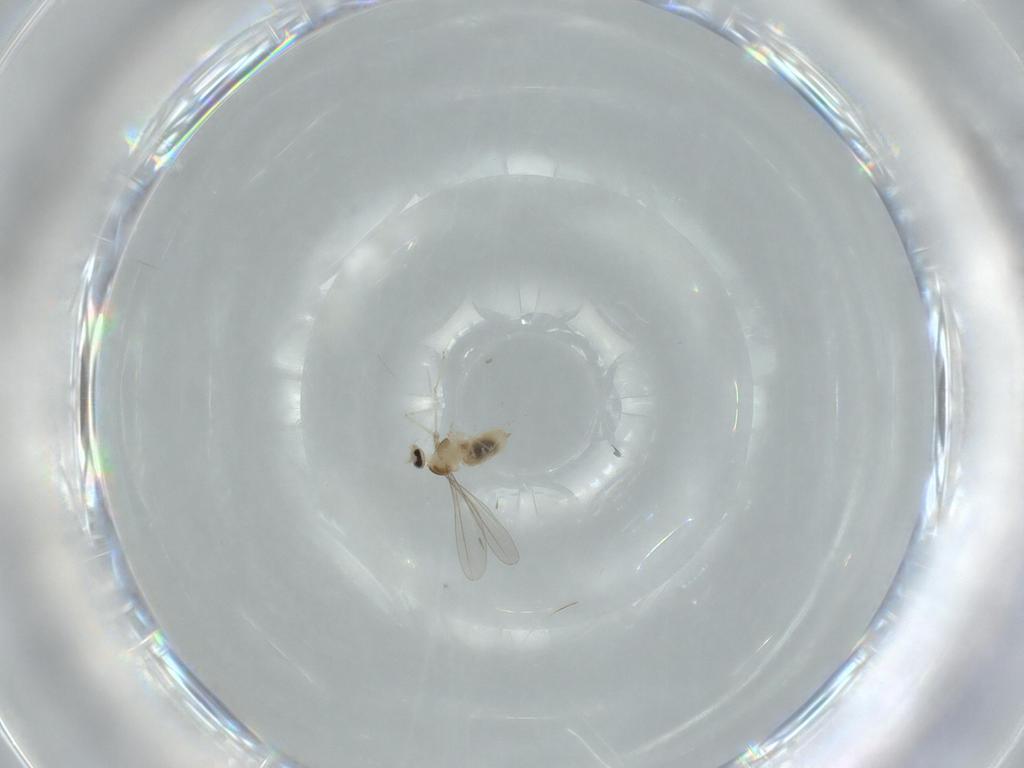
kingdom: Animalia
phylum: Arthropoda
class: Insecta
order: Diptera
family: Cecidomyiidae
